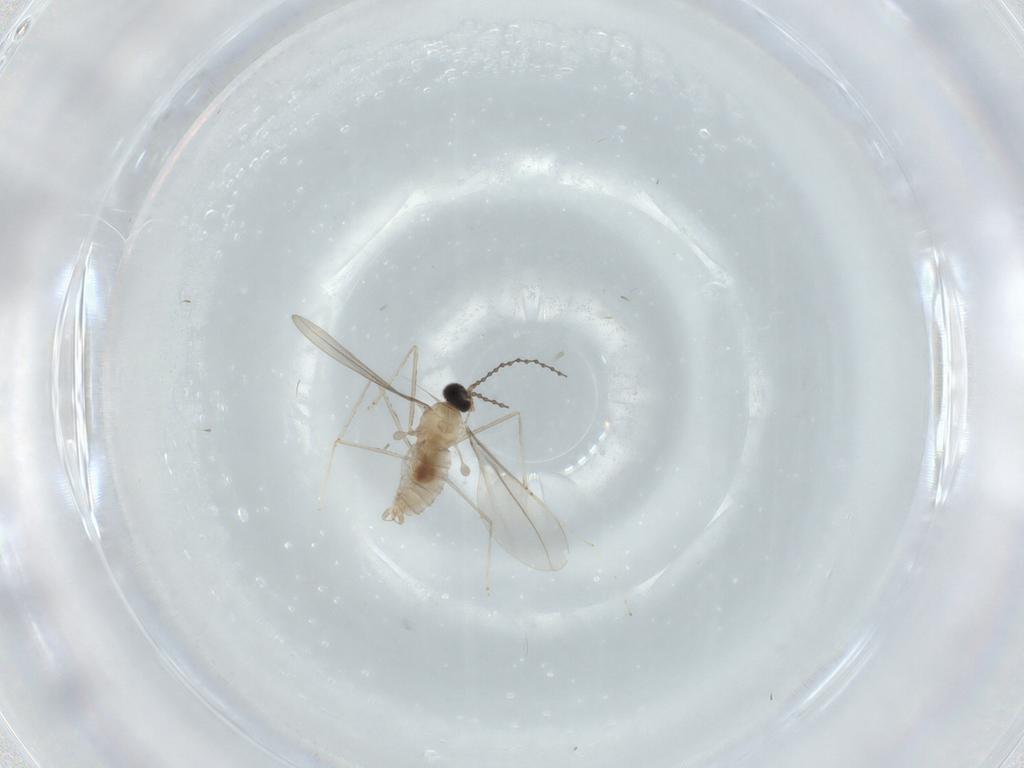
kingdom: Animalia
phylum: Arthropoda
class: Insecta
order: Diptera
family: Cecidomyiidae
